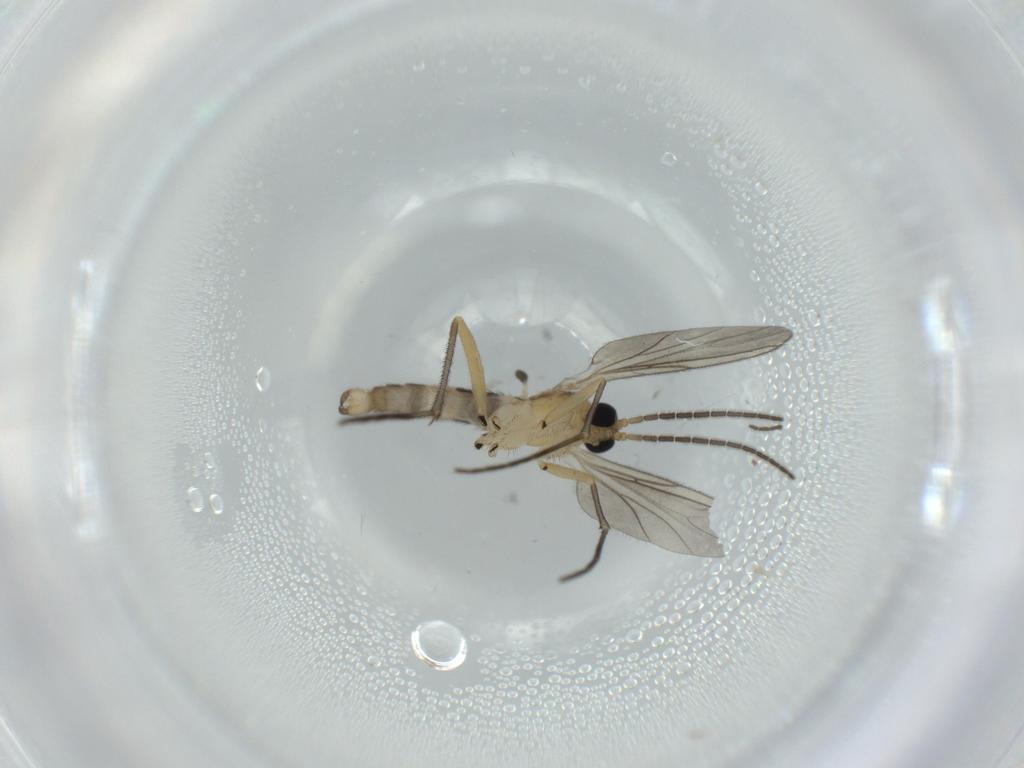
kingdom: Animalia
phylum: Arthropoda
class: Insecta
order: Diptera
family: Sciaridae
